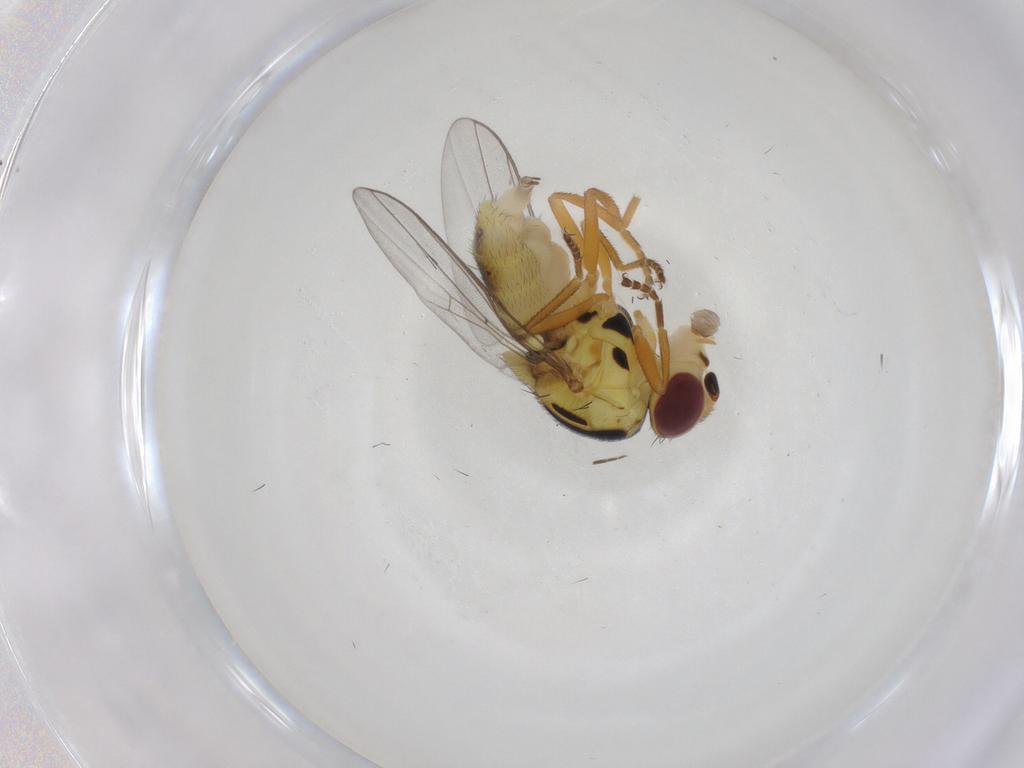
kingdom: Animalia
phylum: Arthropoda
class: Insecta
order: Diptera
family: Chloropidae
